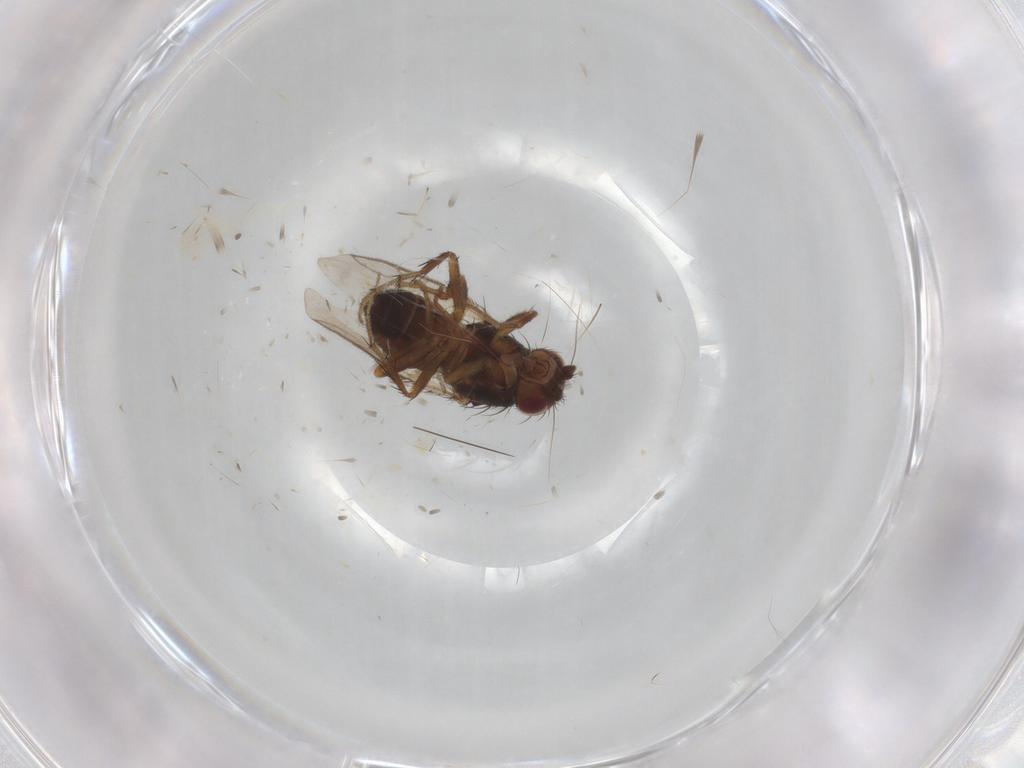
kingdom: Animalia
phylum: Arthropoda
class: Insecta
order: Diptera
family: Sphaeroceridae
